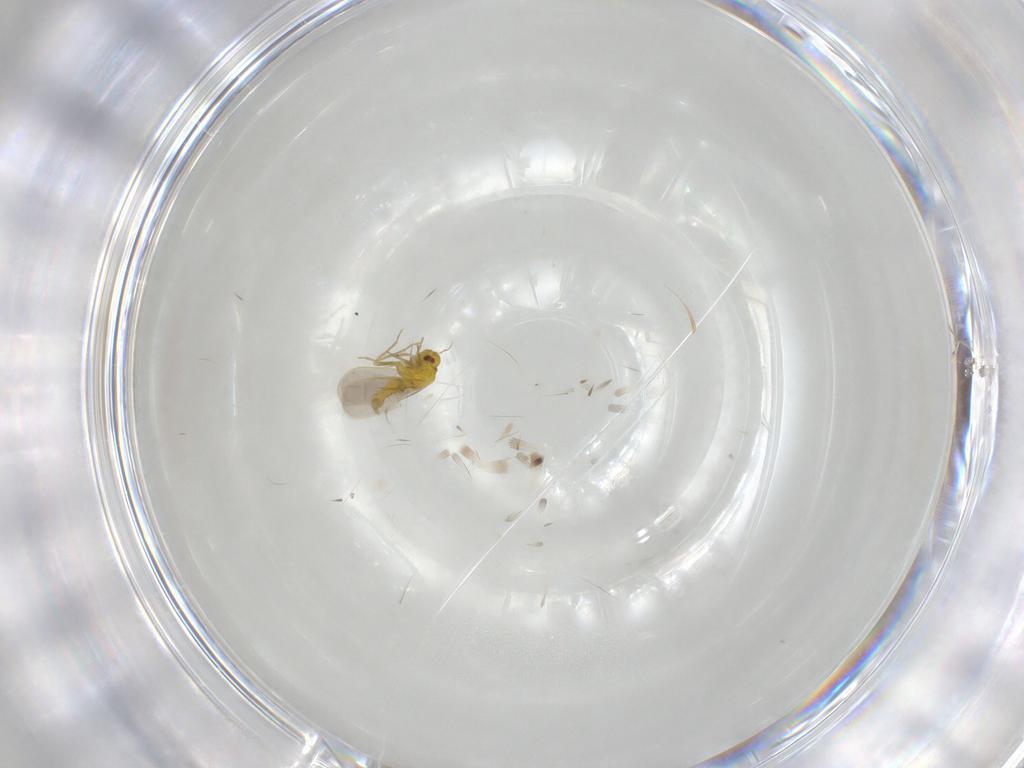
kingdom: Animalia
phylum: Arthropoda
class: Insecta
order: Hemiptera
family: Aleyrodidae
